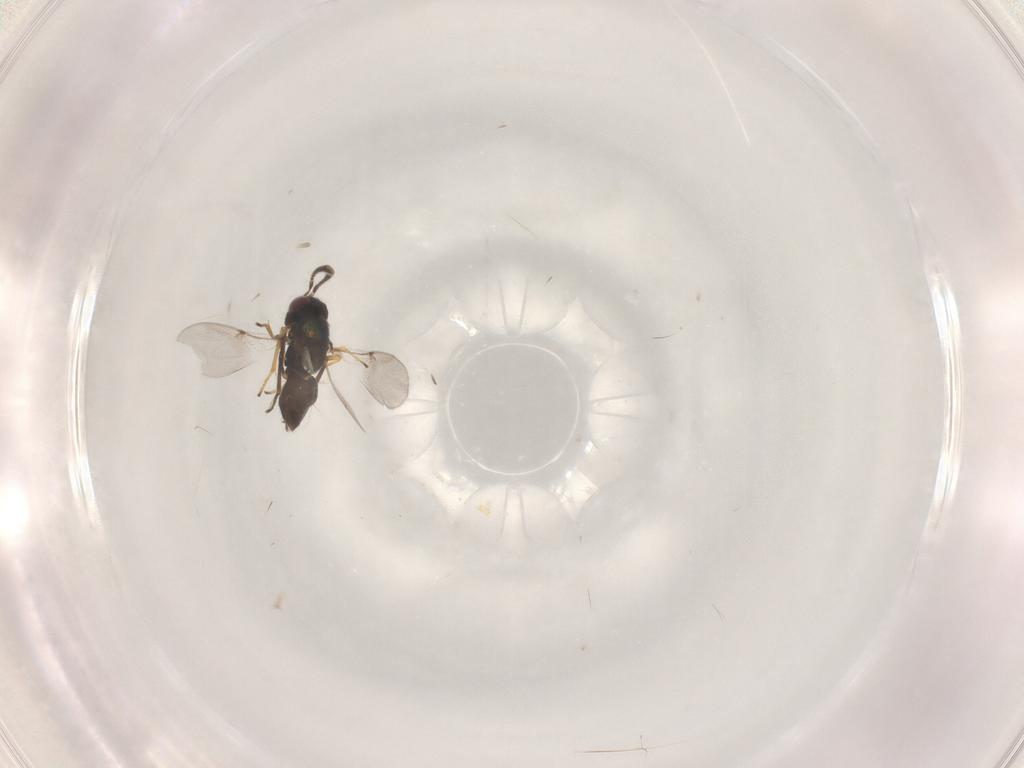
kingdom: Animalia
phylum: Arthropoda
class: Insecta
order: Hymenoptera
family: Encyrtidae
